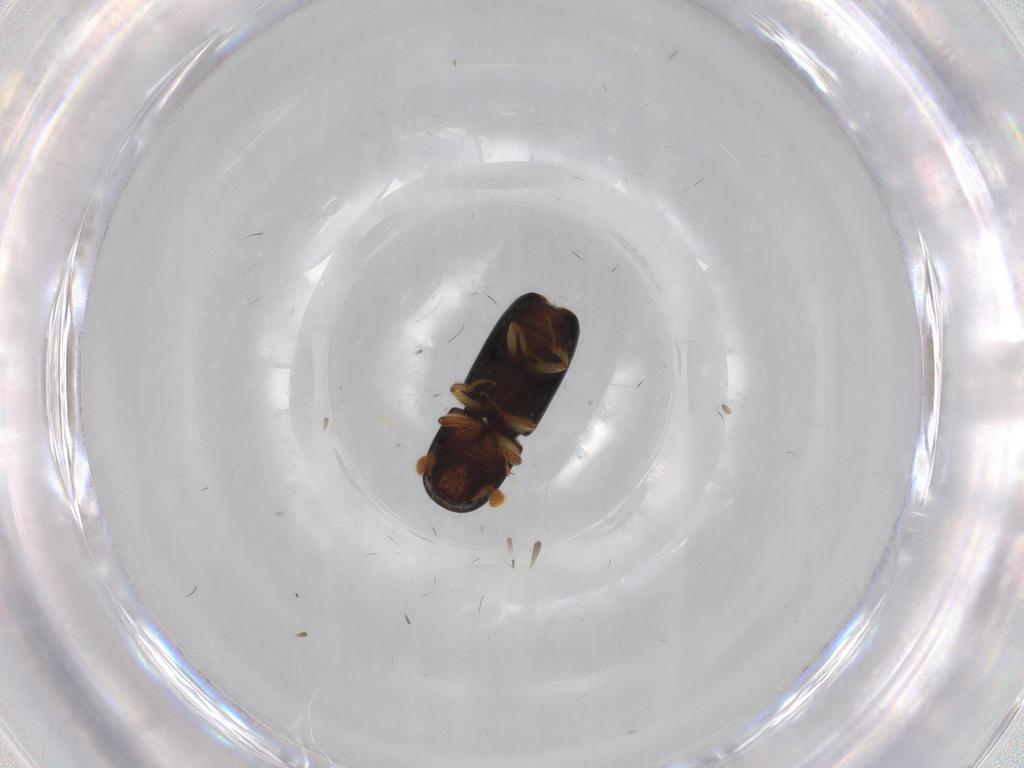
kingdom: Animalia
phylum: Arthropoda
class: Insecta
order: Coleoptera
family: Curculionidae
